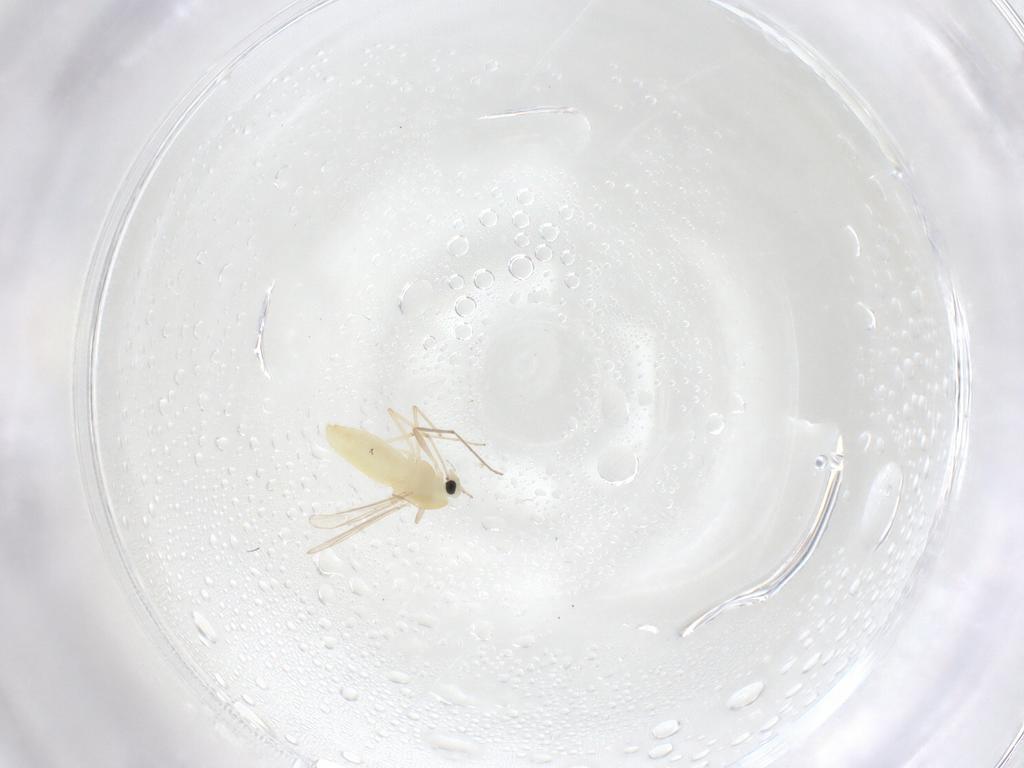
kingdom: Animalia
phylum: Arthropoda
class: Insecta
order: Diptera
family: Chironomidae
